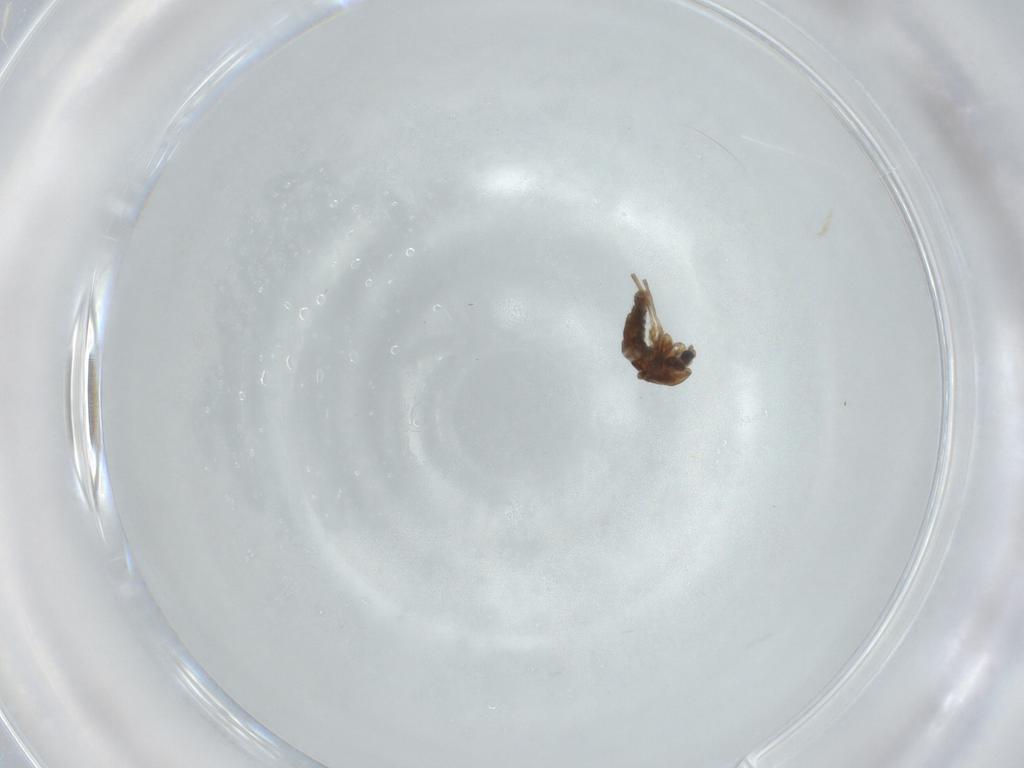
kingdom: Animalia
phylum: Arthropoda
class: Insecta
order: Diptera
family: Chironomidae
